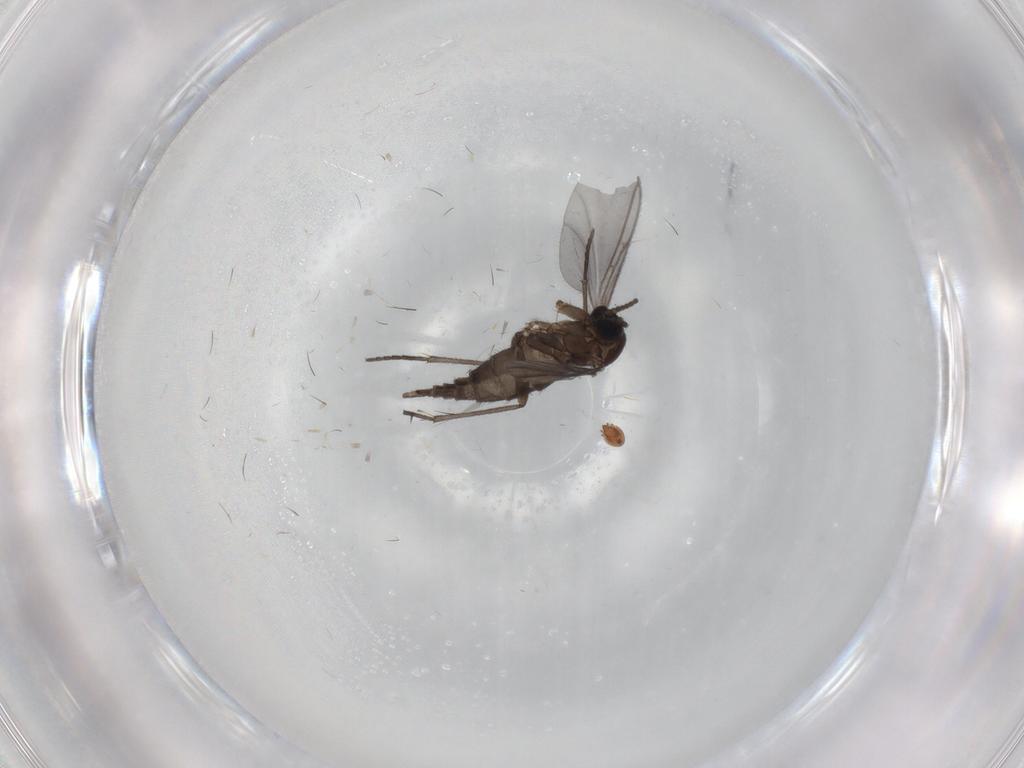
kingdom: Animalia
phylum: Arthropoda
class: Insecta
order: Diptera
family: Sciaridae
